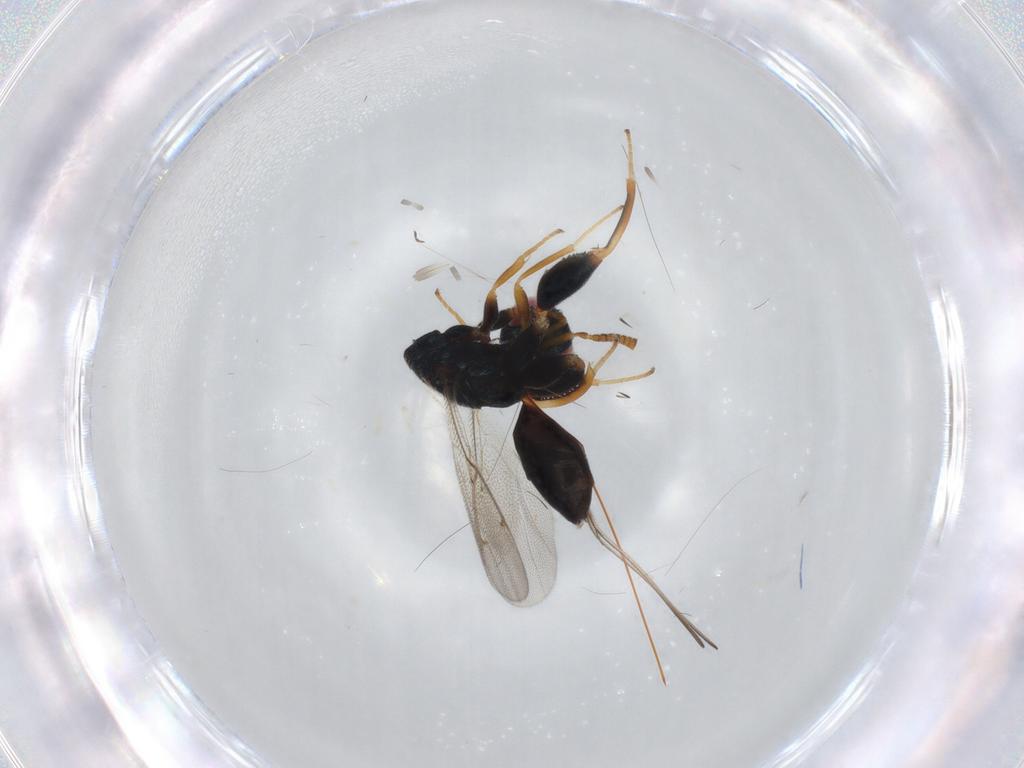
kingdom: Animalia
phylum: Arthropoda
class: Insecta
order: Hymenoptera
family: Torymidae
